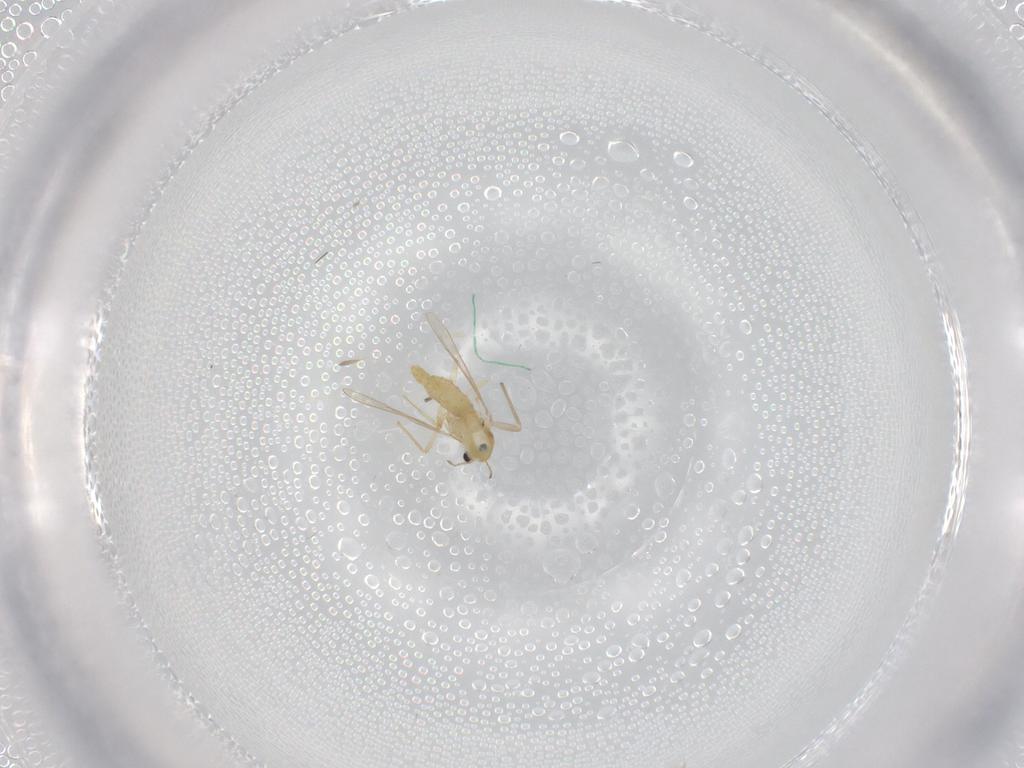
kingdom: Animalia
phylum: Arthropoda
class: Insecta
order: Diptera
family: Chironomidae
